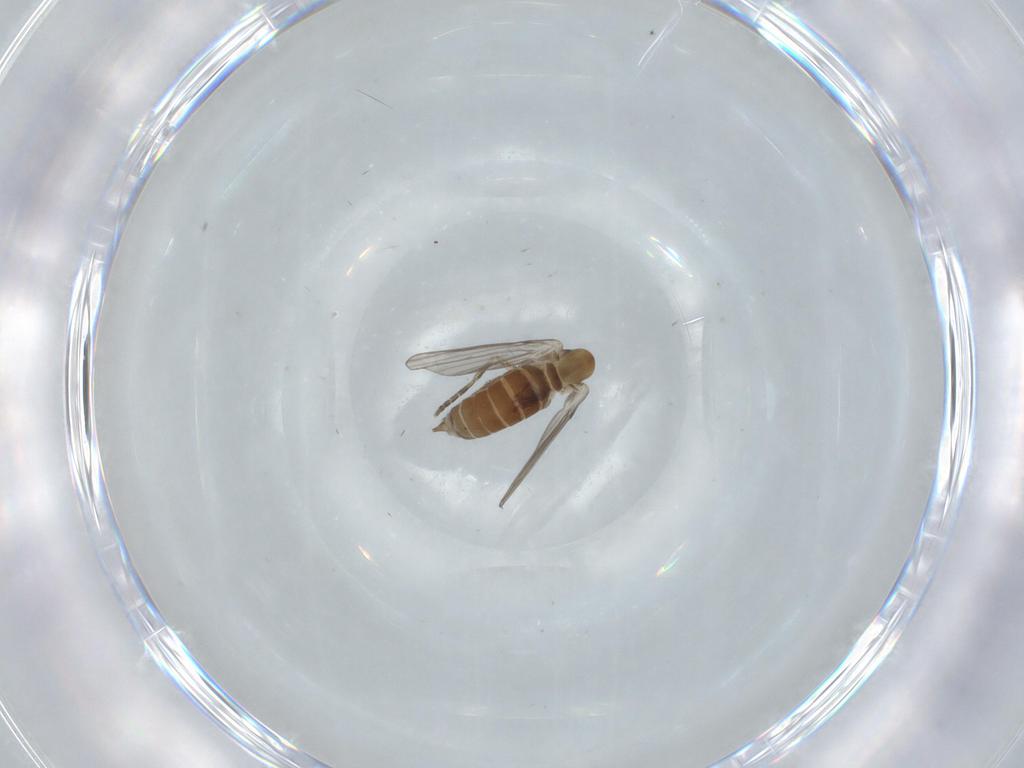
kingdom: Animalia
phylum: Arthropoda
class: Insecta
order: Diptera
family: Psychodidae
